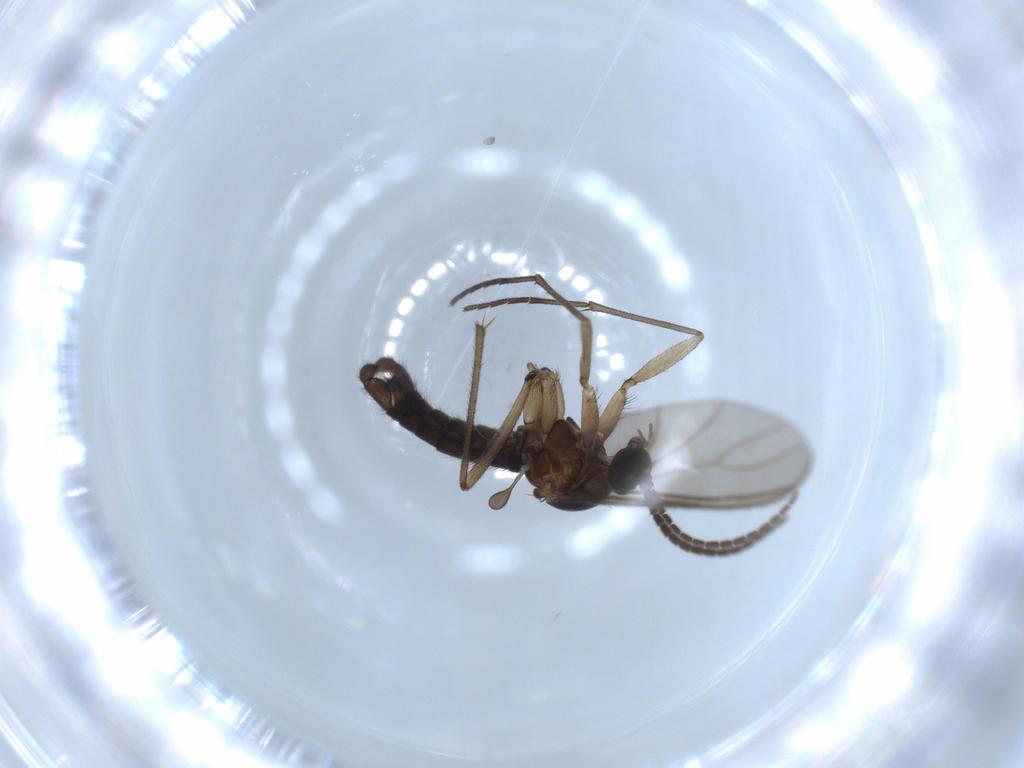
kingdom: Animalia
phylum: Arthropoda
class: Insecta
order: Diptera
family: Sciaridae
